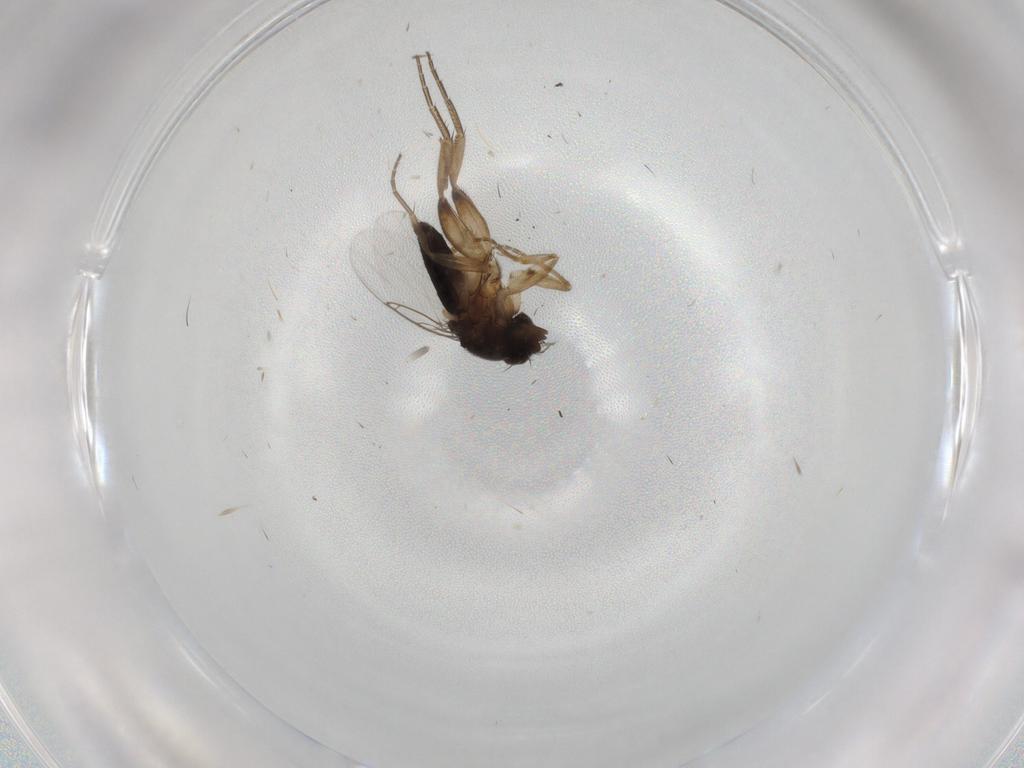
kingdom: Animalia
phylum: Arthropoda
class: Insecta
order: Diptera
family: Phoridae
